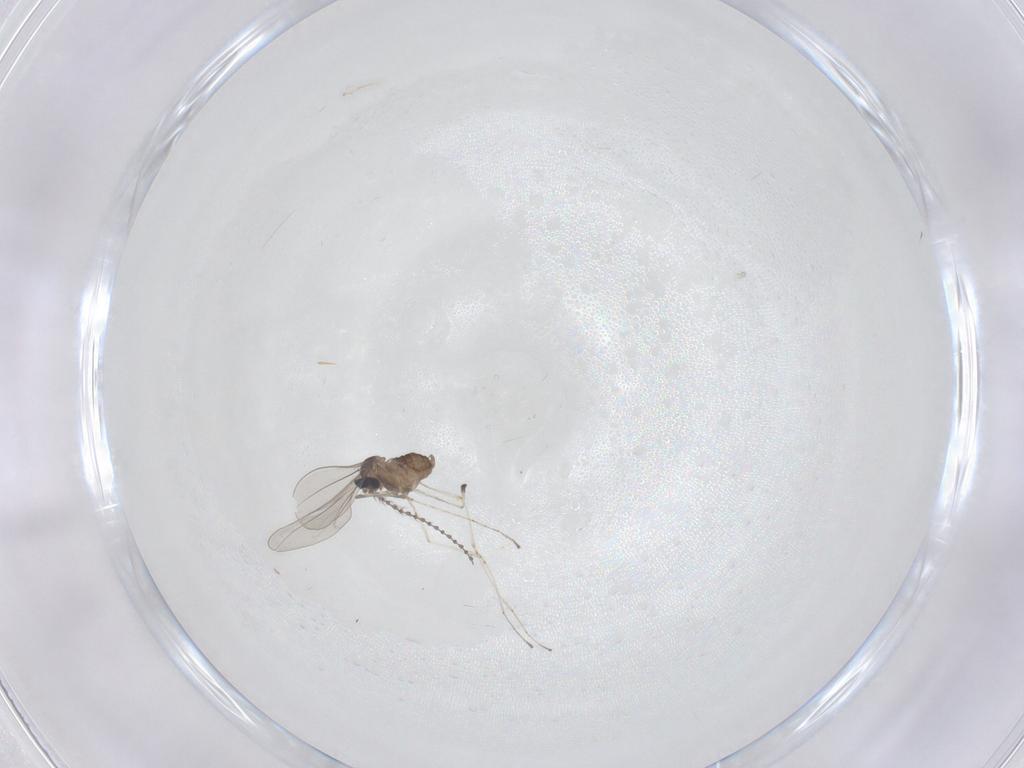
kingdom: Animalia
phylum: Arthropoda
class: Insecta
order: Diptera
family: Cecidomyiidae
